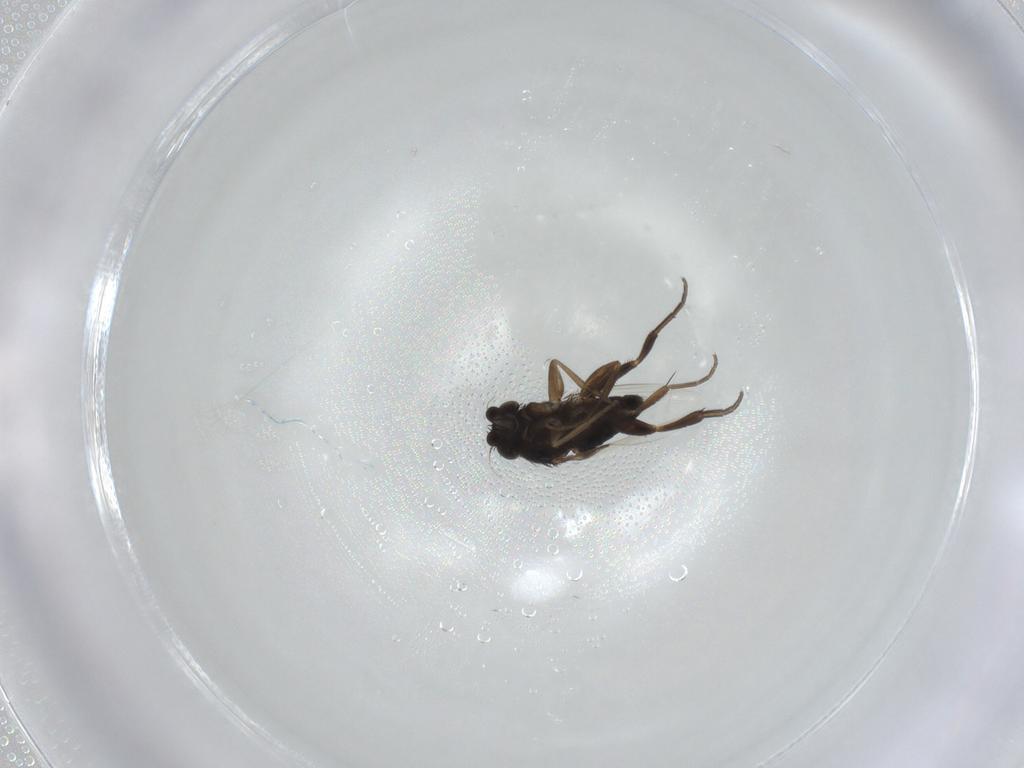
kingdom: Animalia
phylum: Arthropoda
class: Insecta
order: Diptera
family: Phoridae
